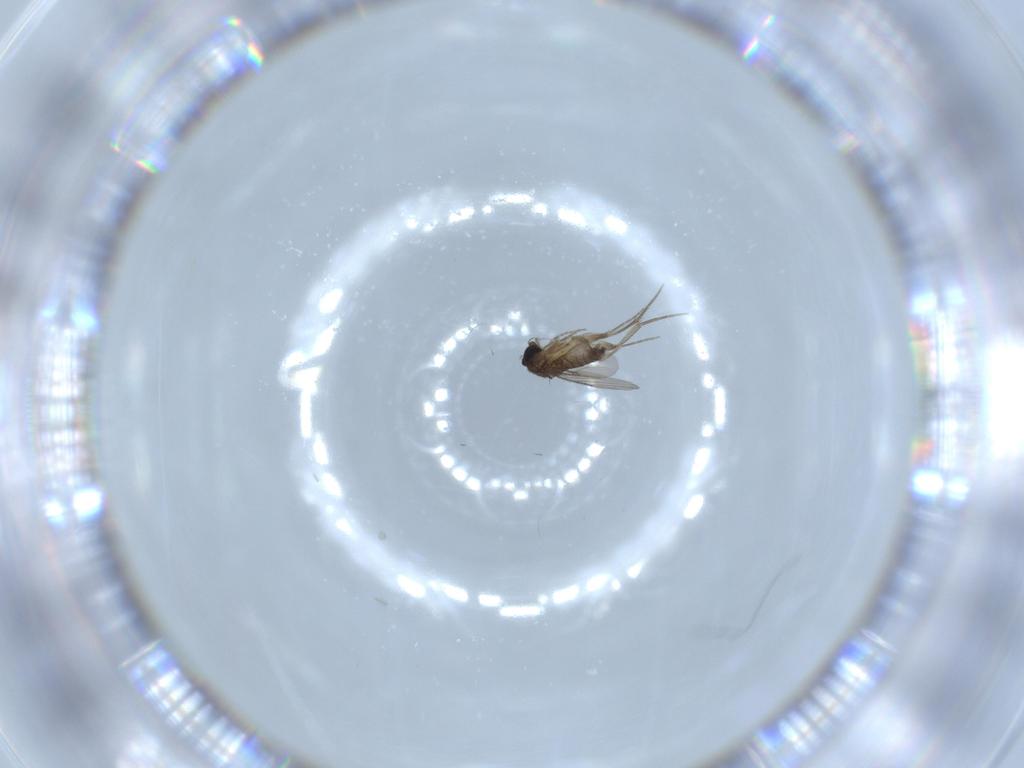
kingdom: Animalia
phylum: Arthropoda
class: Insecta
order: Diptera
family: Phoridae
